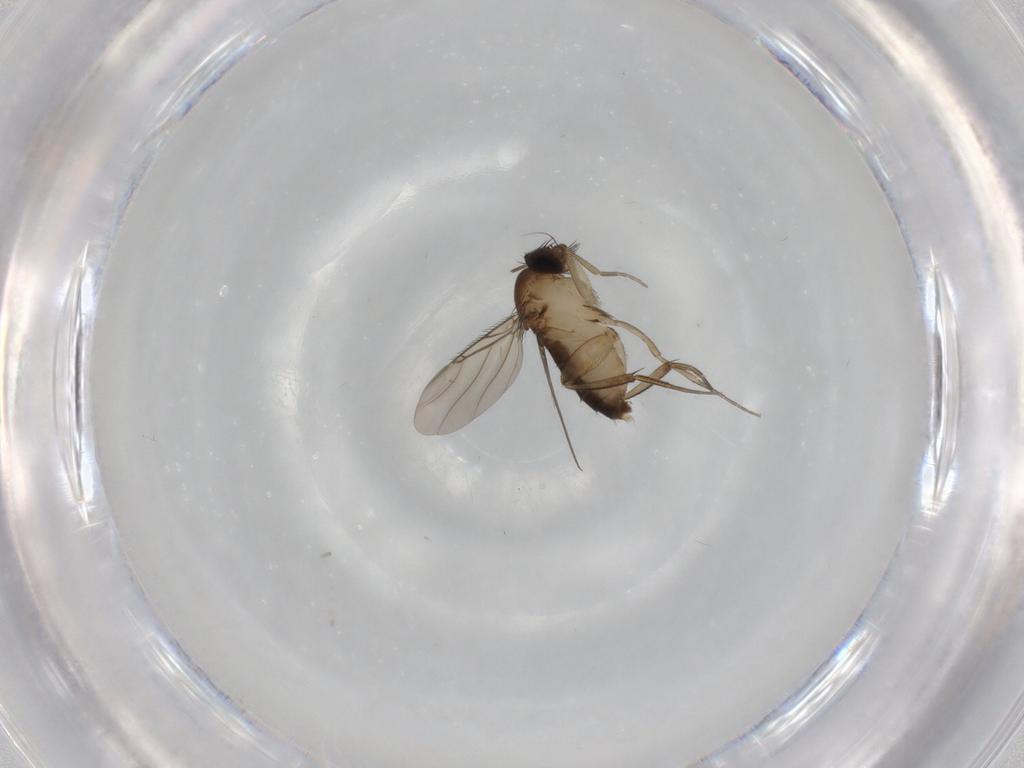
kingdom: Animalia
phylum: Arthropoda
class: Insecta
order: Diptera
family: Phoridae
